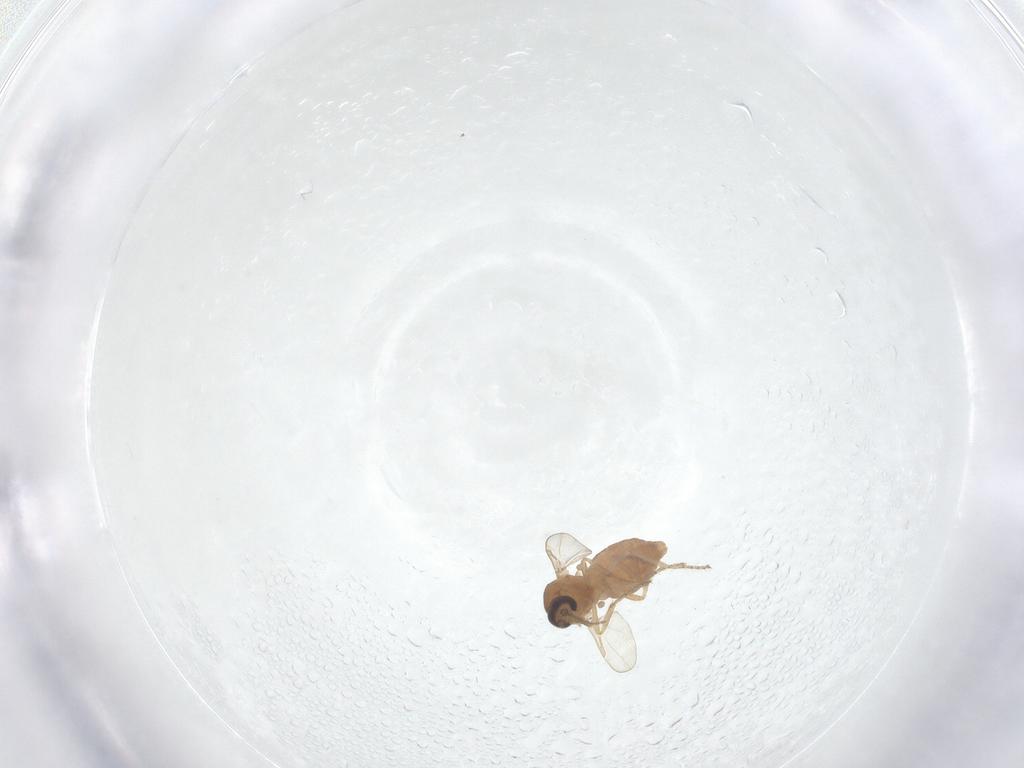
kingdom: Animalia
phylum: Arthropoda
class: Insecta
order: Diptera
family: Ceratopogonidae
